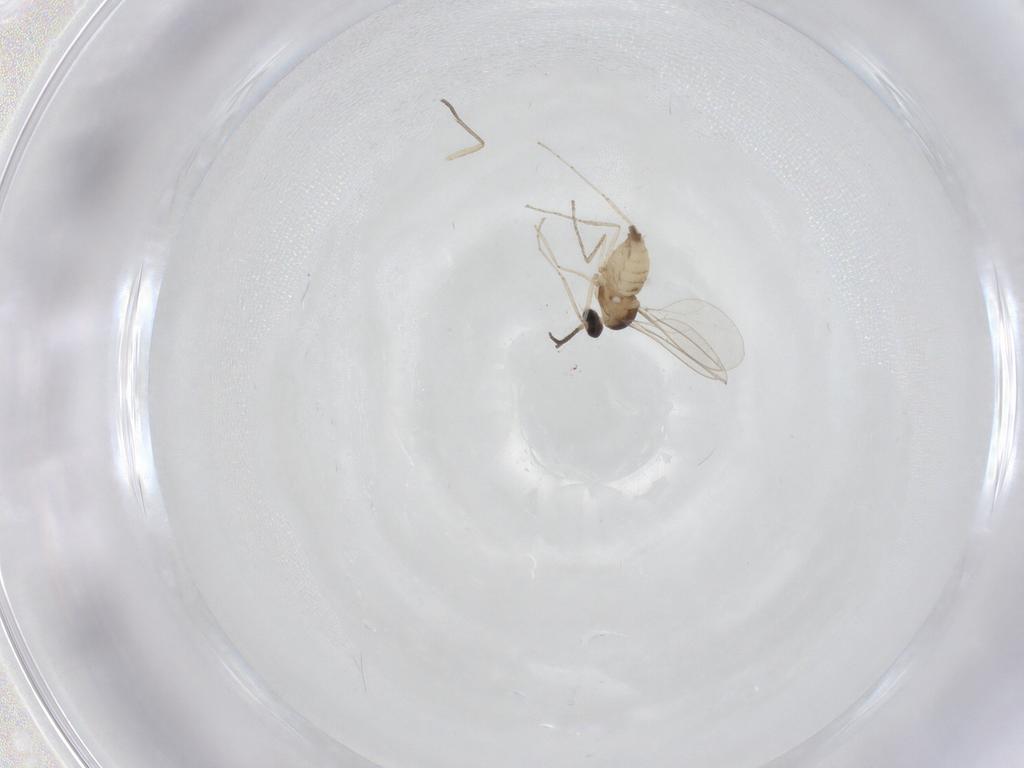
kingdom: Animalia
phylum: Arthropoda
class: Insecta
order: Diptera
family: Cecidomyiidae
